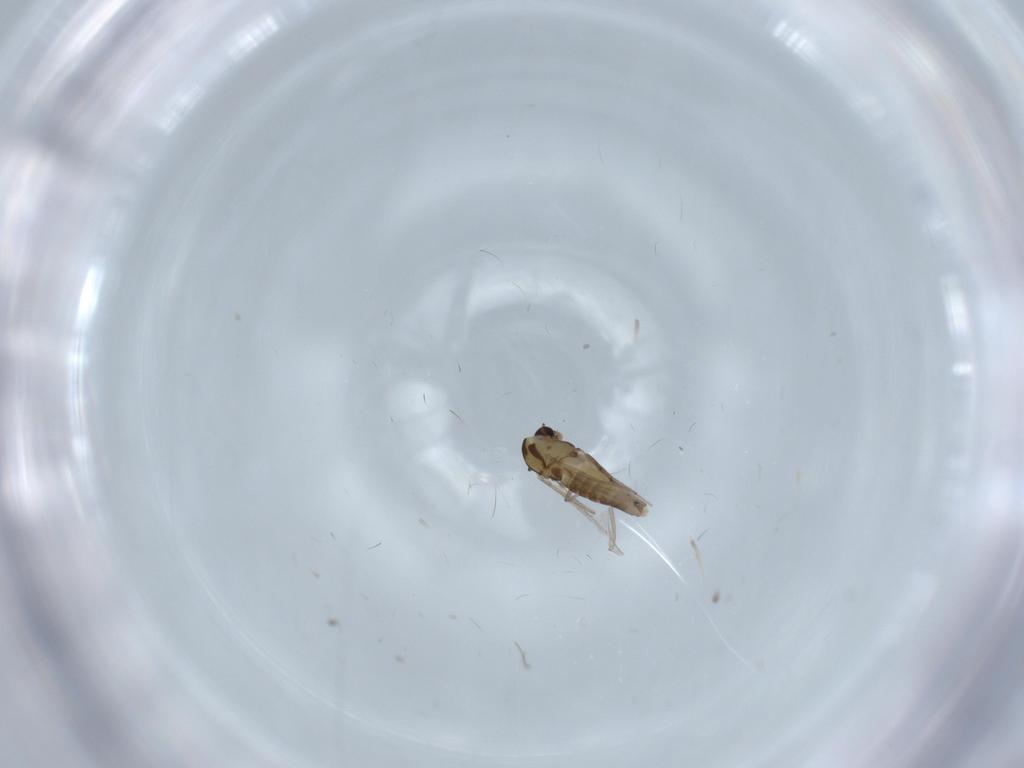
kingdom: Animalia
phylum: Arthropoda
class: Insecta
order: Diptera
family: Chironomidae
